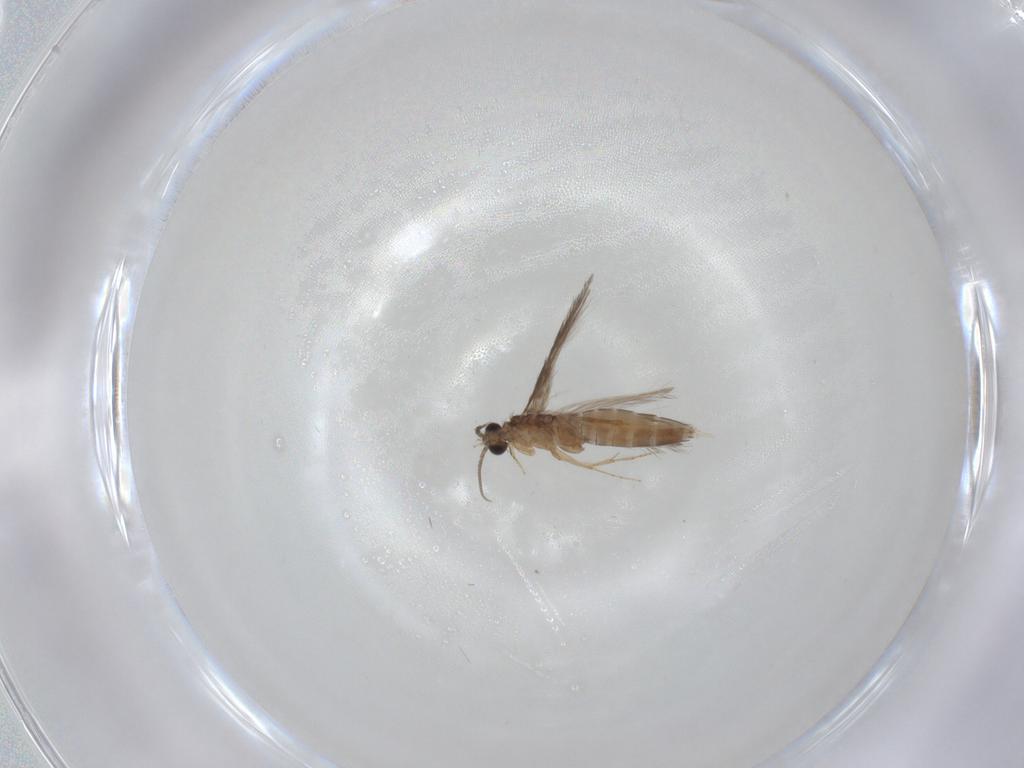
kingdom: Animalia
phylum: Arthropoda
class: Insecta
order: Trichoptera
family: Hydroptilidae
